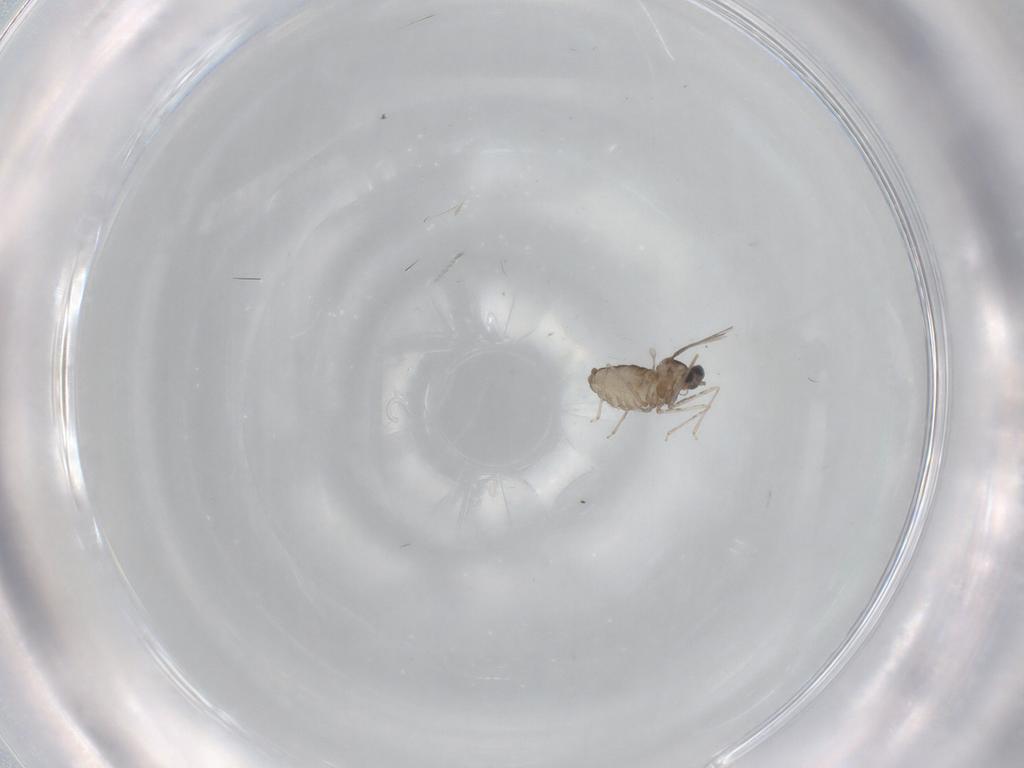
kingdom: Animalia
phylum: Arthropoda
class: Insecta
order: Diptera
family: Cecidomyiidae
